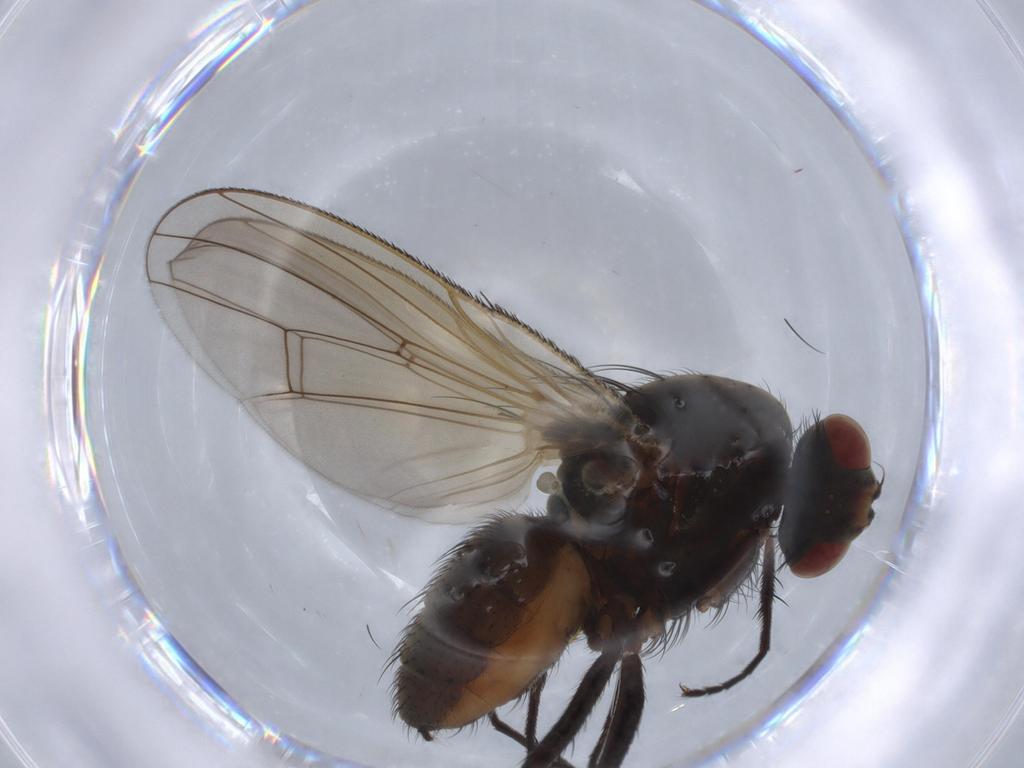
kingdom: Animalia
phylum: Arthropoda
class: Insecta
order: Diptera
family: Anthomyiidae
